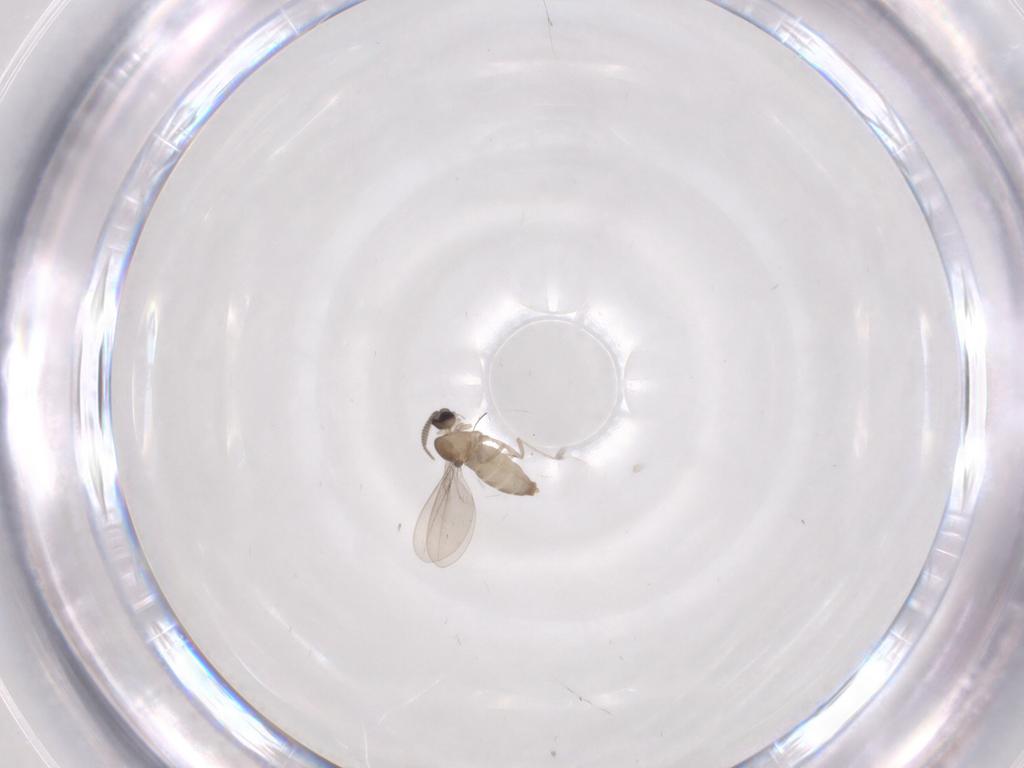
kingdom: Animalia
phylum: Arthropoda
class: Insecta
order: Diptera
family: Cecidomyiidae
